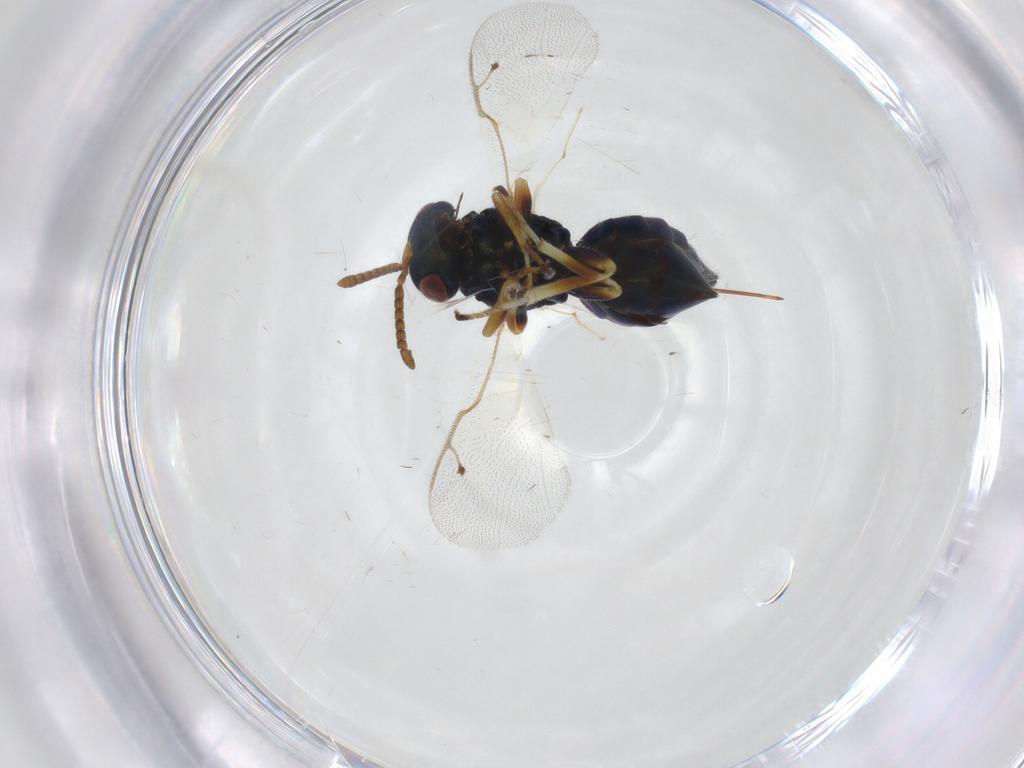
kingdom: Animalia
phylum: Arthropoda
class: Insecta
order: Hymenoptera
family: Pteromalidae
